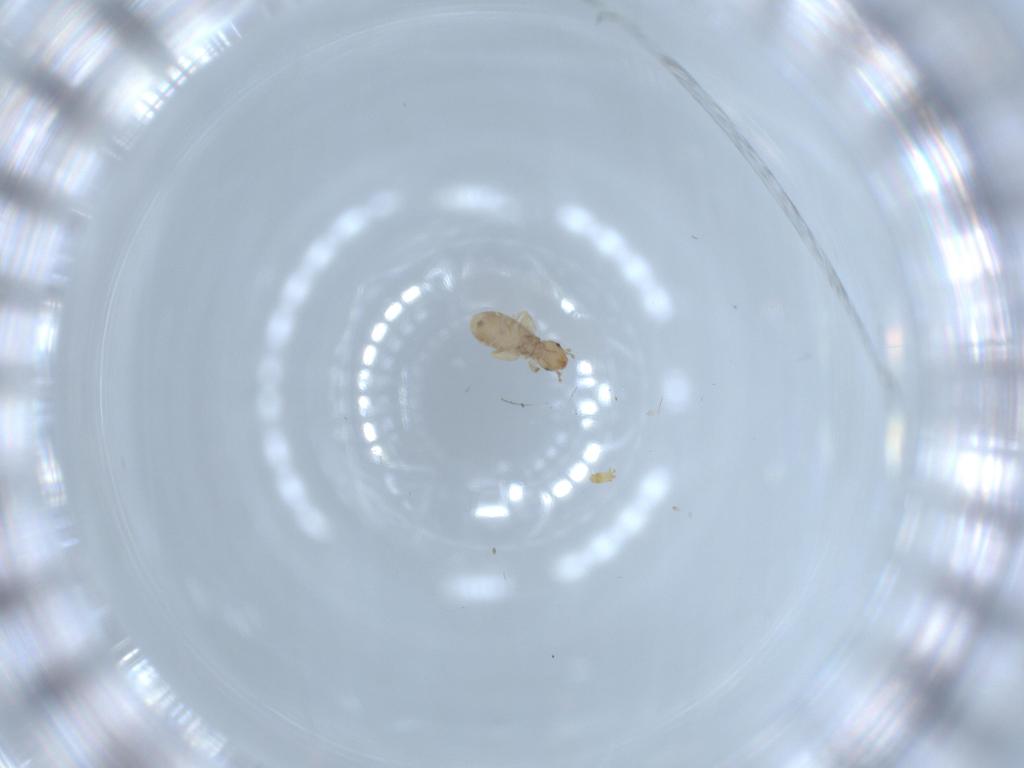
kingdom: Animalia
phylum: Arthropoda
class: Insecta
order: Psocodea
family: Liposcelididae
